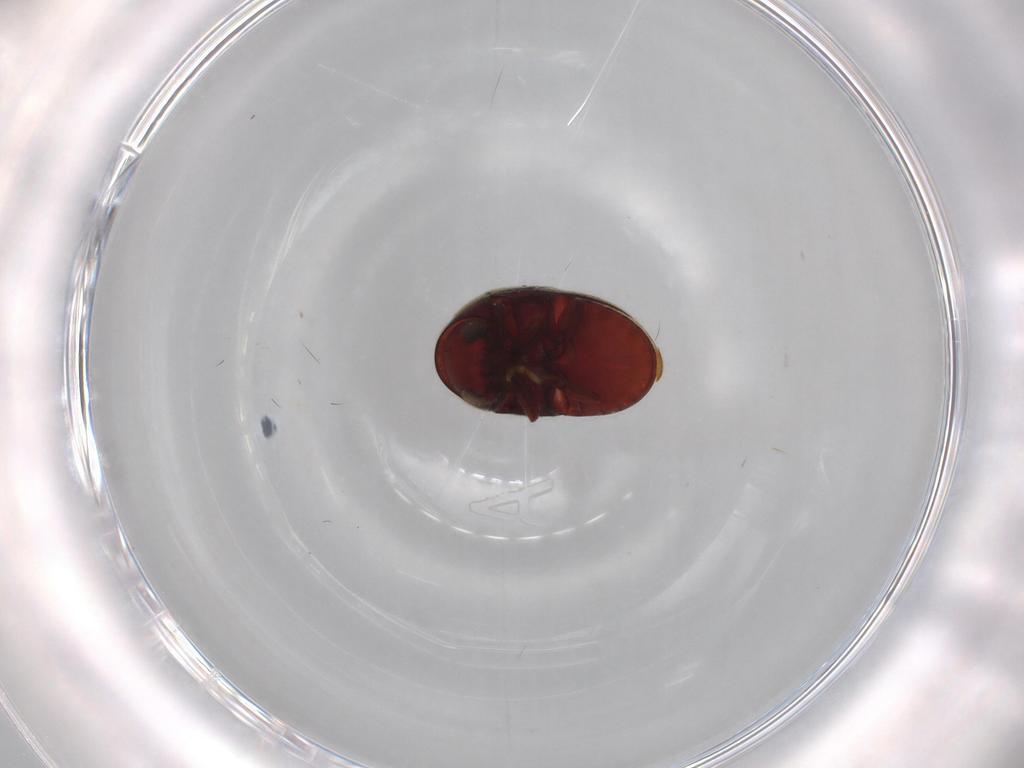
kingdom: Animalia
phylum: Arthropoda
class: Insecta
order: Coleoptera
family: Ptinidae
